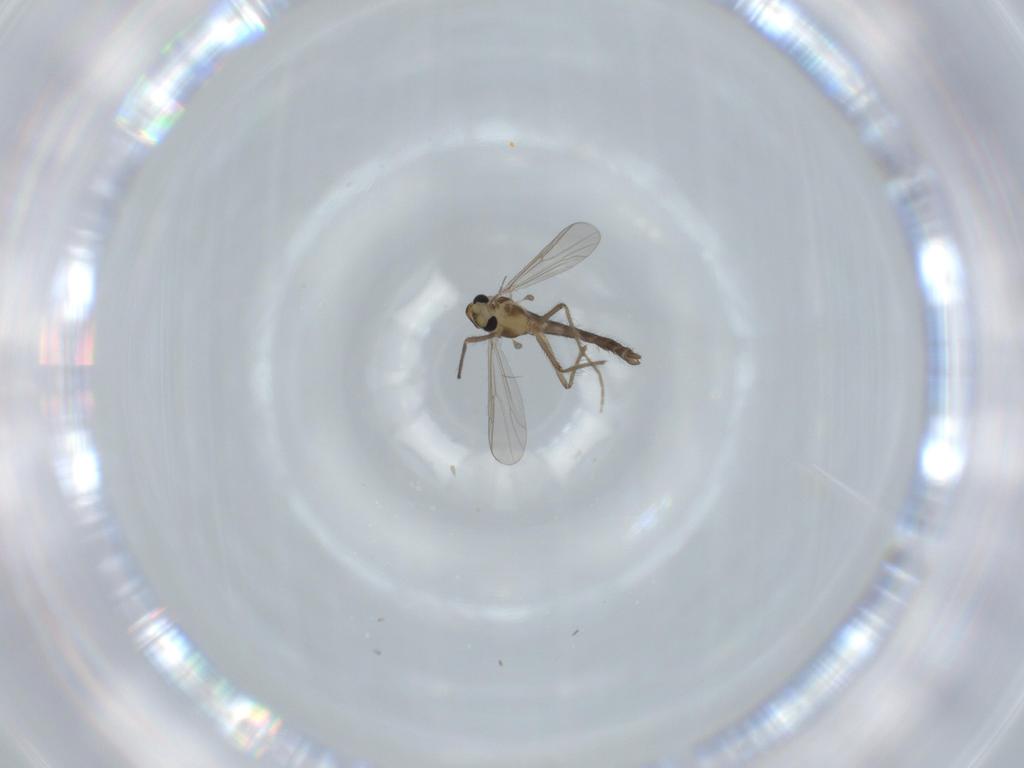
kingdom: Animalia
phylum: Arthropoda
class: Insecta
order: Diptera
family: Chironomidae
